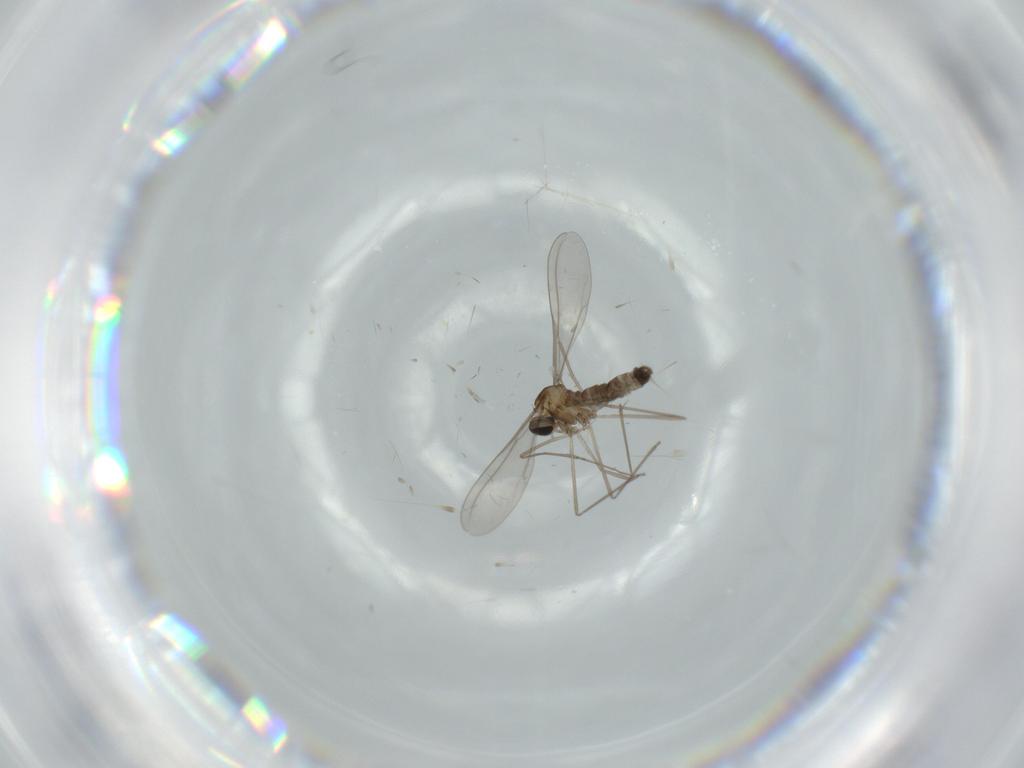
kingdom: Animalia
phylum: Arthropoda
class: Insecta
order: Diptera
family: Cecidomyiidae
